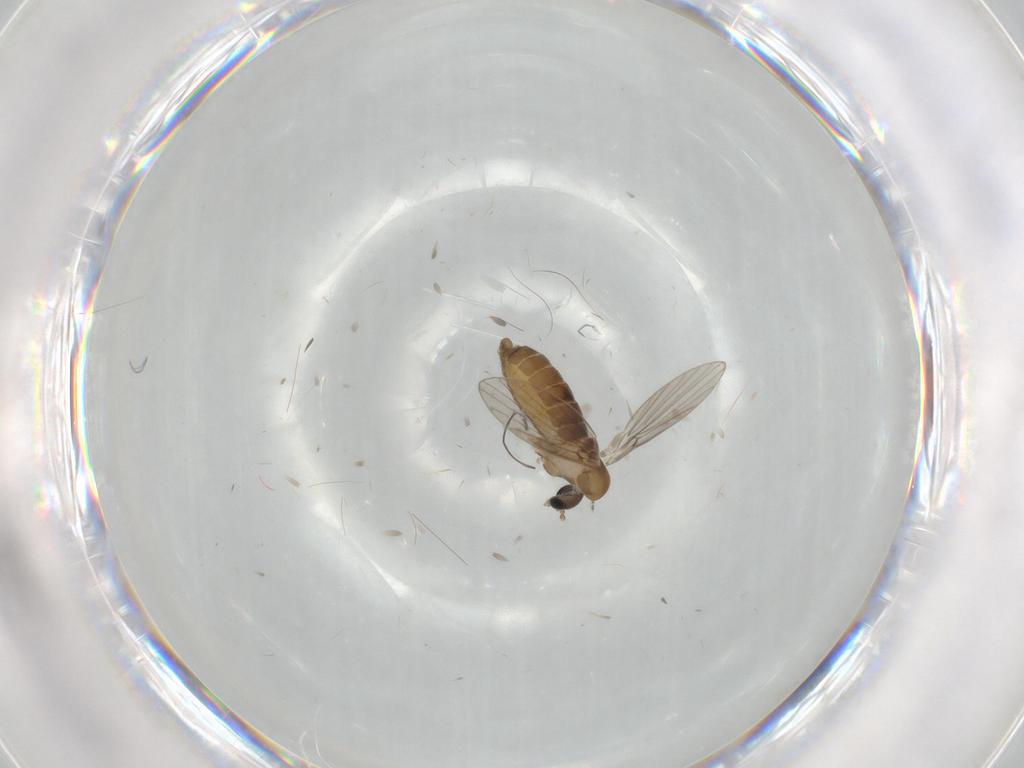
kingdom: Animalia
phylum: Arthropoda
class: Insecta
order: Diptera
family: Psychodidae
